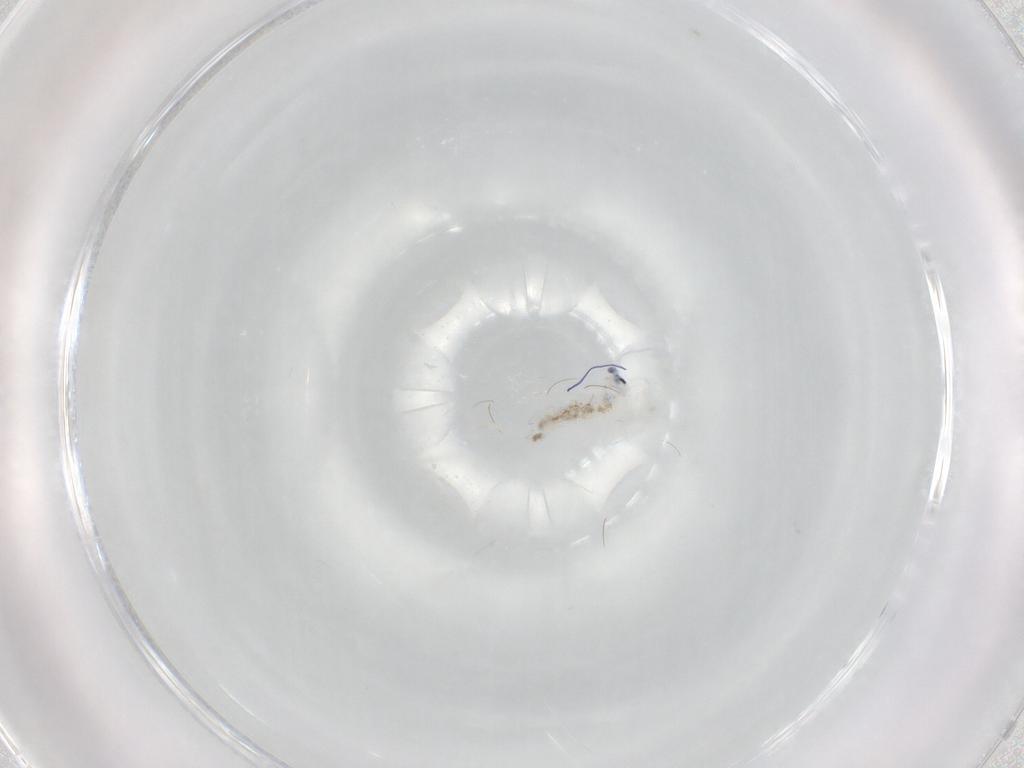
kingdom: Animalia
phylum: Arthropoda
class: Collembola
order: Entomobryomorpha
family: Entomobryidae
